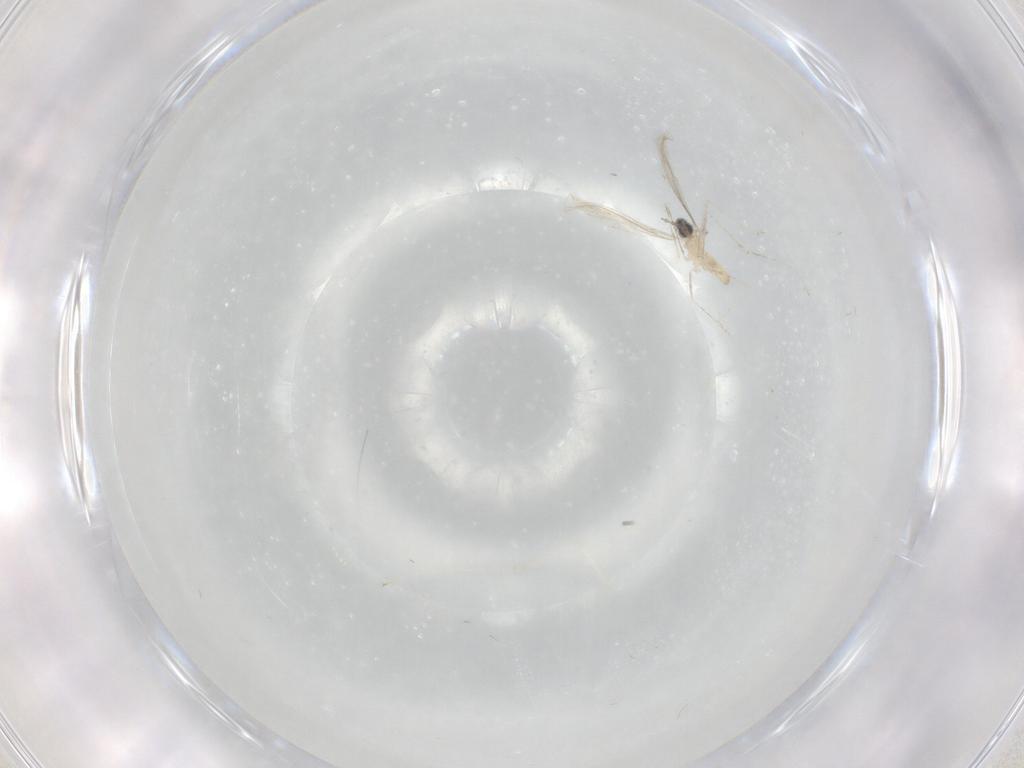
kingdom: Animalia
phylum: Arthropoda
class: Insecta
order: Diptera
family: Cecidomyiidae
